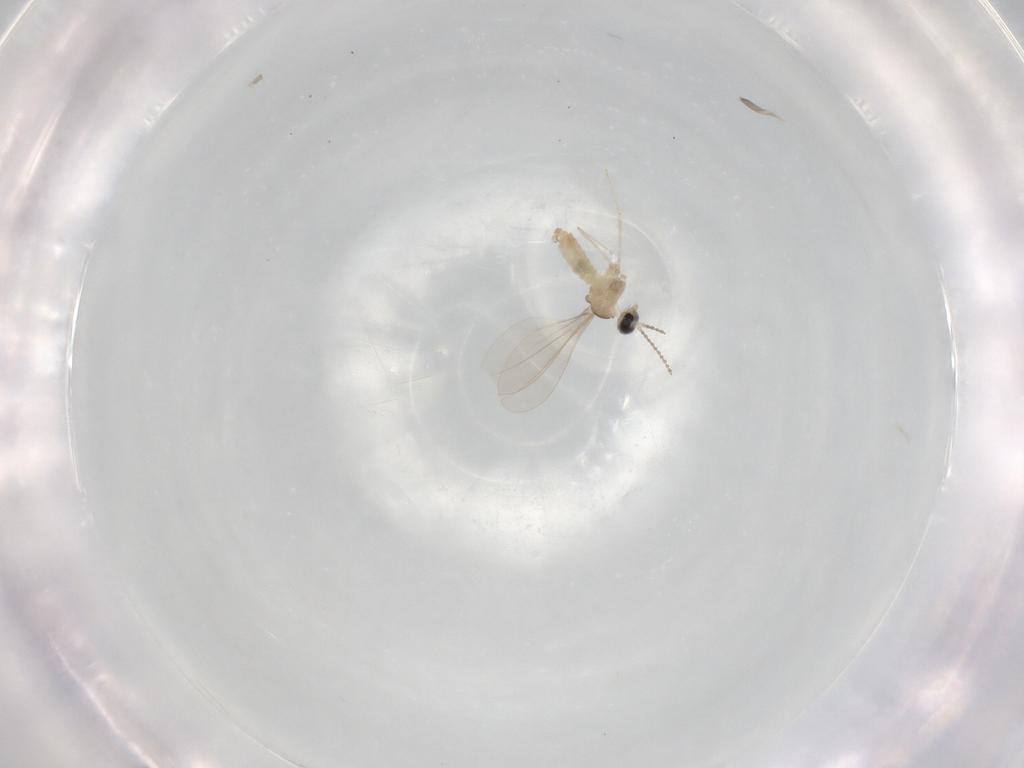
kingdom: Animalia
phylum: Arthropoda
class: Insecta
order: Diptera
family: Cecidomyiidae
